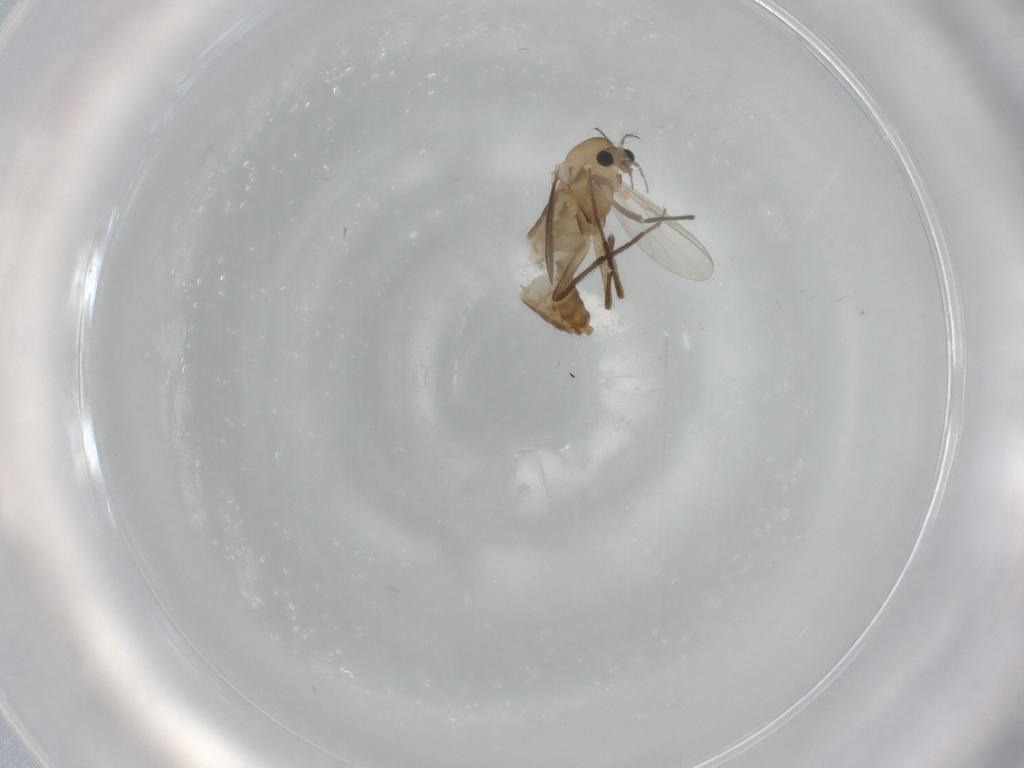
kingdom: Animalia
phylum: Arthropoda
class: Insecta
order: Diptera
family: Chironomidae
